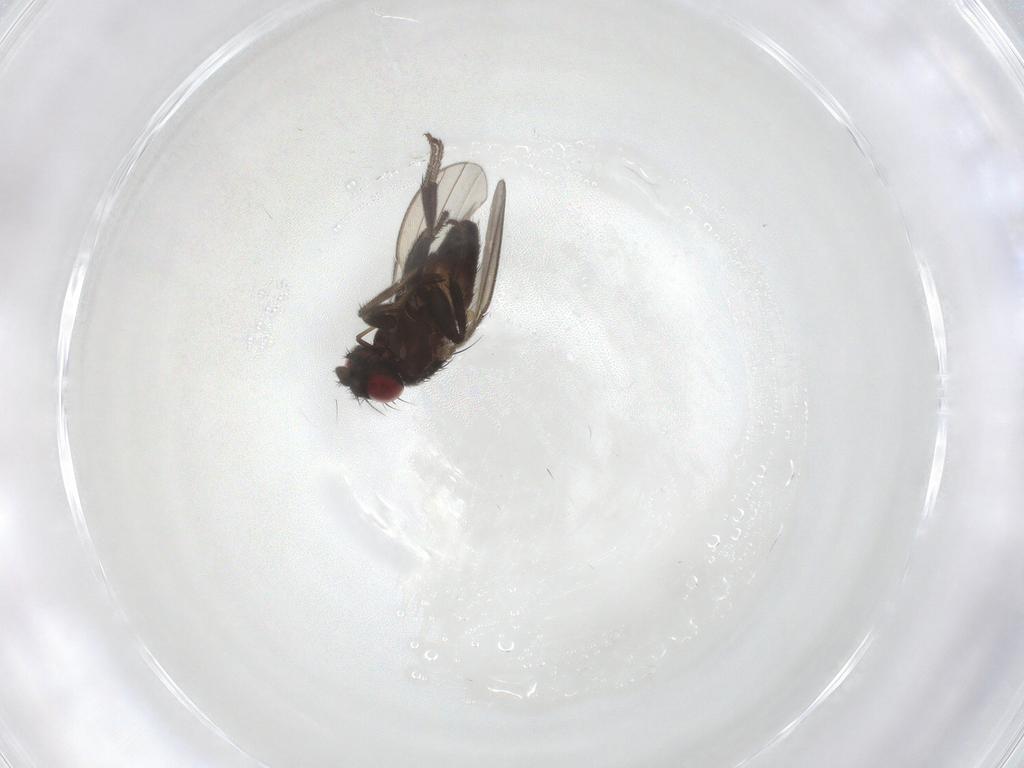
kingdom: Animalia
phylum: Arthropoda
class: Insecta
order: Diptera
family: Milichiidae
